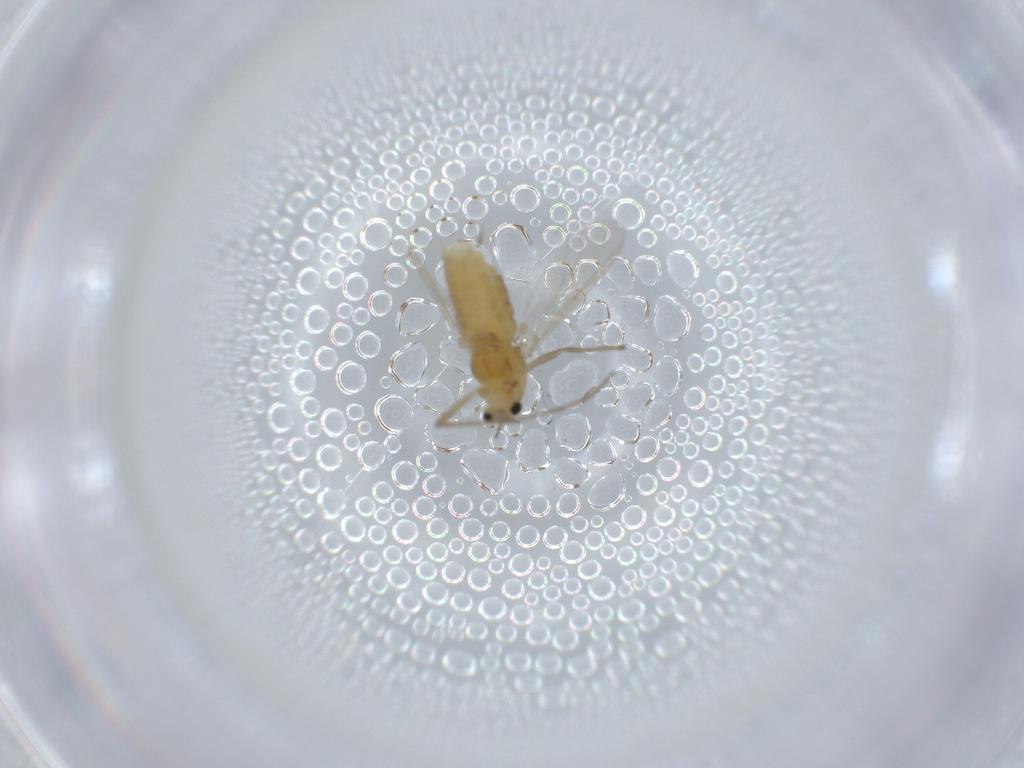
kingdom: Animalia
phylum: Arthropoda
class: Insecta
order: Diptera
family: Chironomidae
